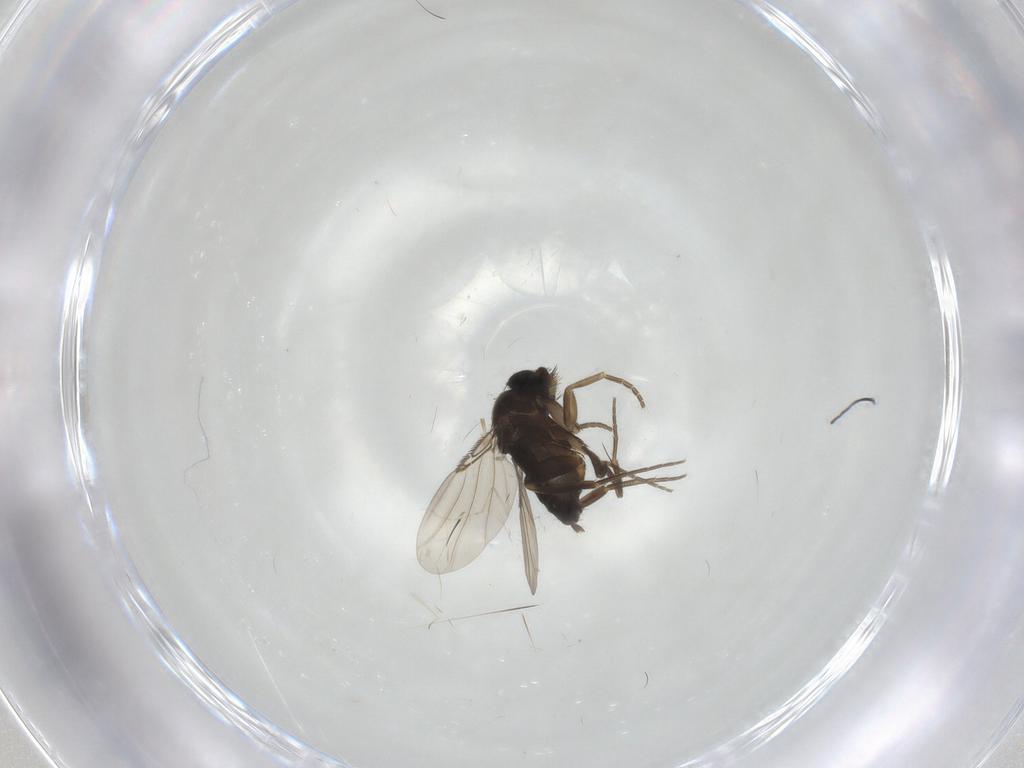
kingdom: Animalia
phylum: Arthropoda
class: Insecta
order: Diptera
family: Phoridae
